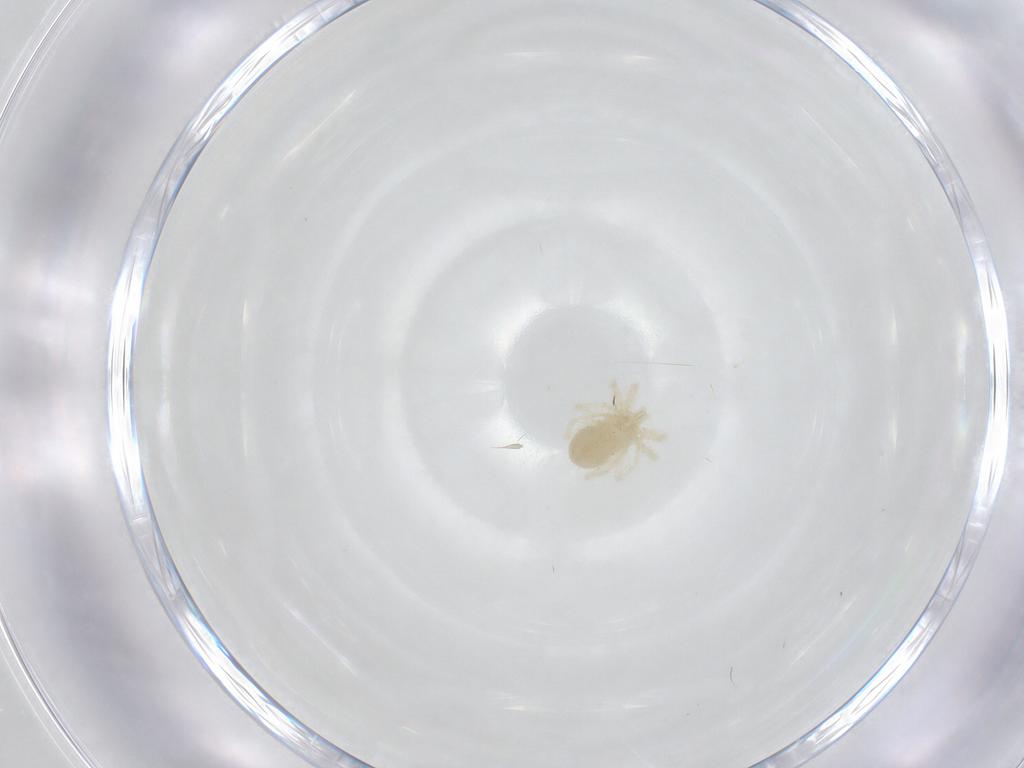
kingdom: Animalia
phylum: Arthropoda
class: Arachnida
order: Trombidiformes
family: Anystidae
